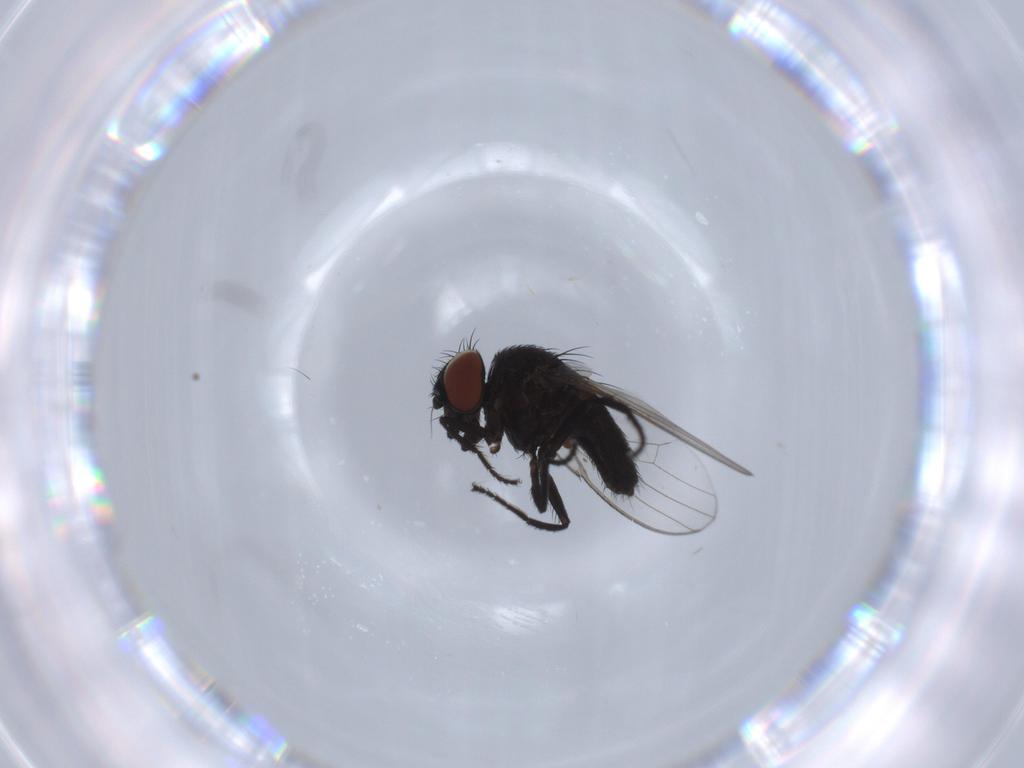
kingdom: Animalia
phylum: Arthropoda
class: Insecta
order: Diptera
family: Milichiidae
